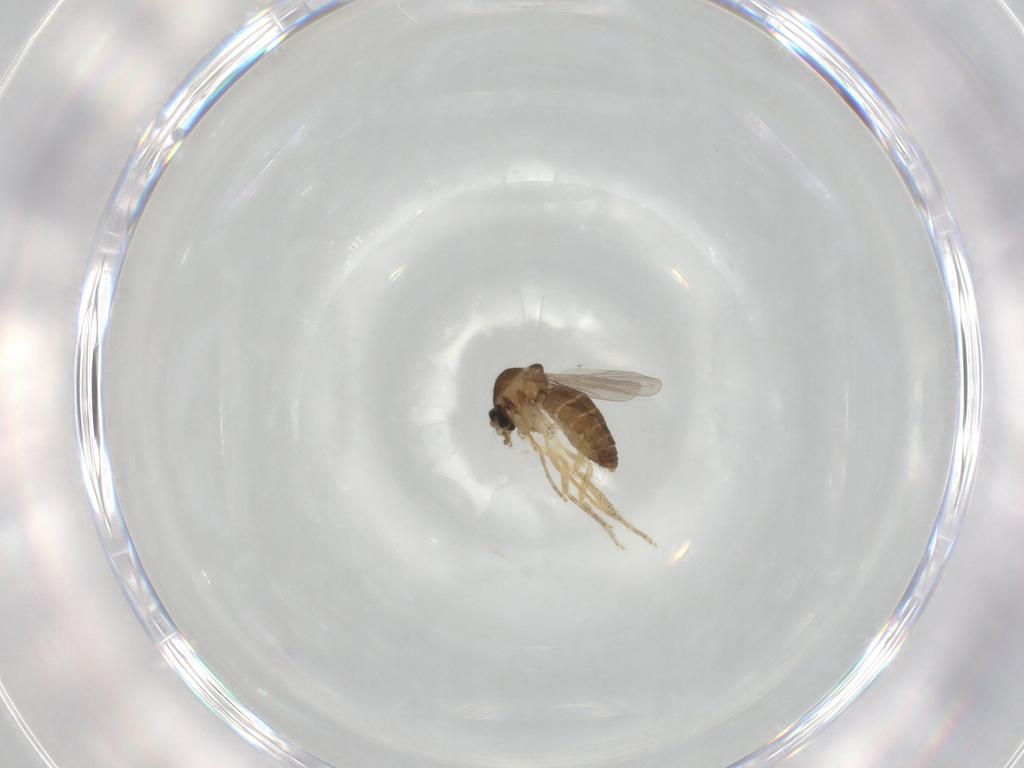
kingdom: Animalia
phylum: Arthropoda
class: Insecta
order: Diptera
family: Ceratopogonidae
